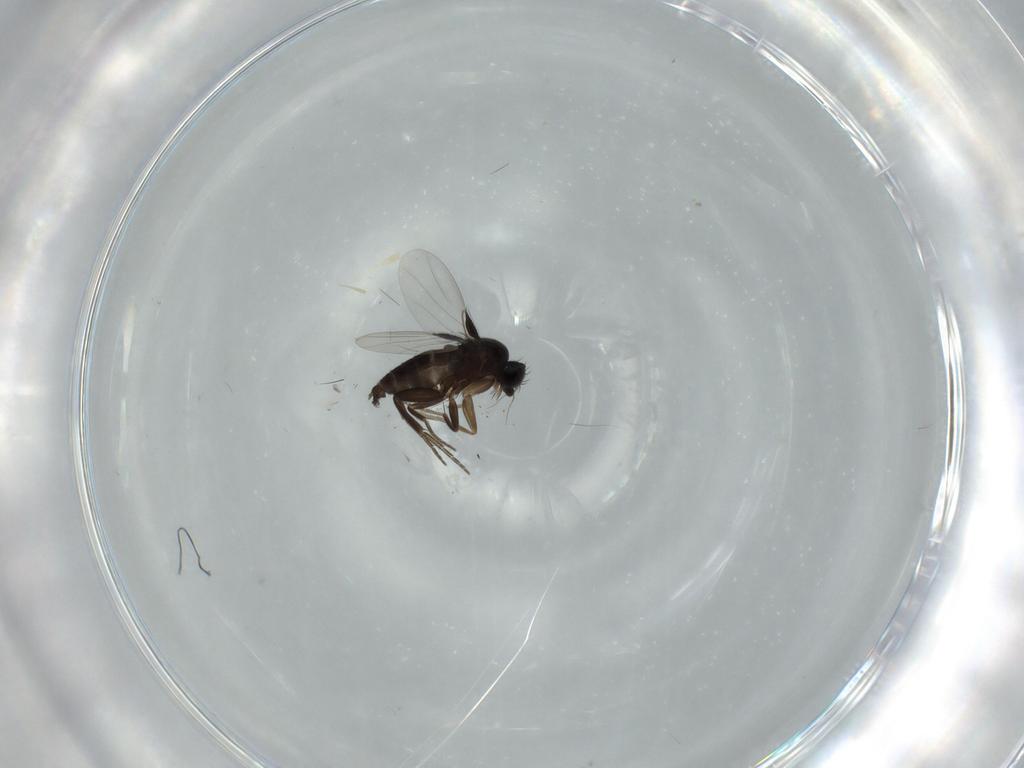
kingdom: Animalia
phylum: Arthropoda
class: Insecta
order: Diptera
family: Phoridae
